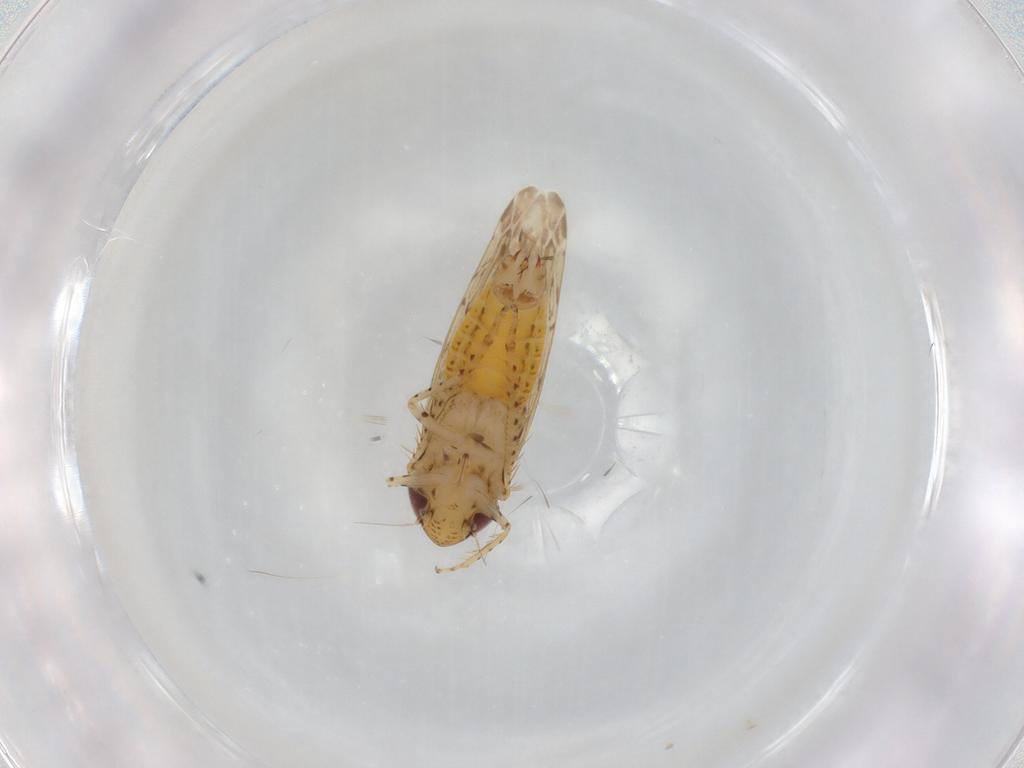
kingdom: Animalia
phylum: Arthropoda
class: Insecta
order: Hemiptera
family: Cicadellidae
